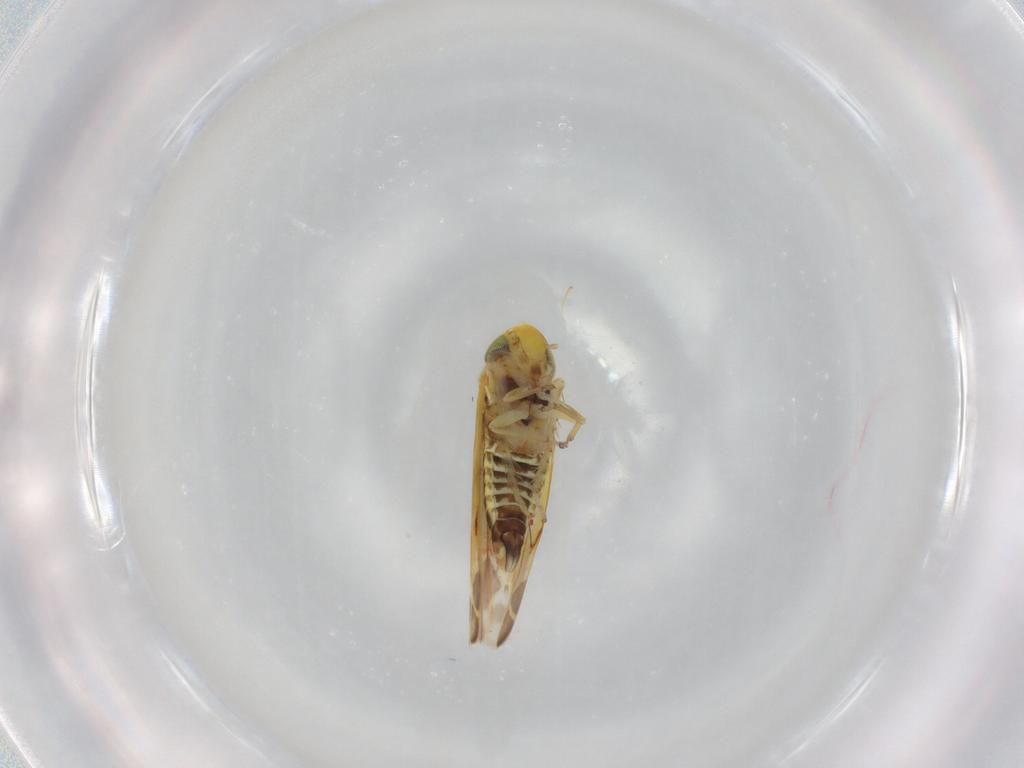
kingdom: Animalia
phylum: Arthropoda
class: Insecta
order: Hemiptera
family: Cicadellidae
